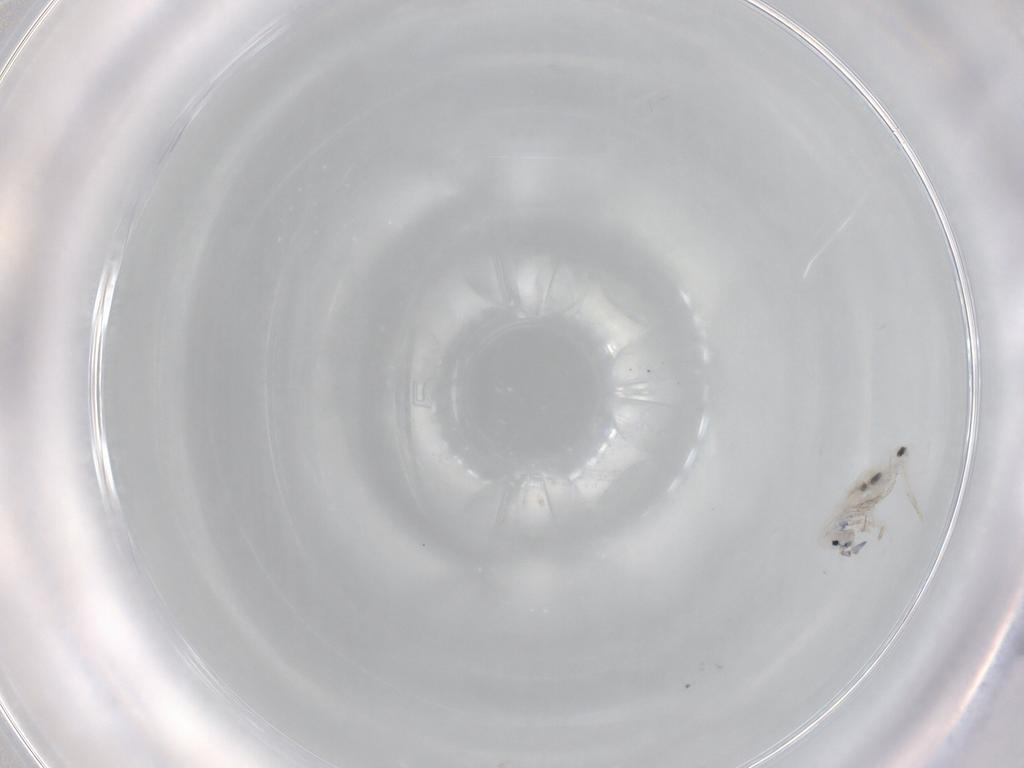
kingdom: Animalia
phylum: Arthropoda
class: Collembola
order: Entomobryomorpha
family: Entomobryidae
